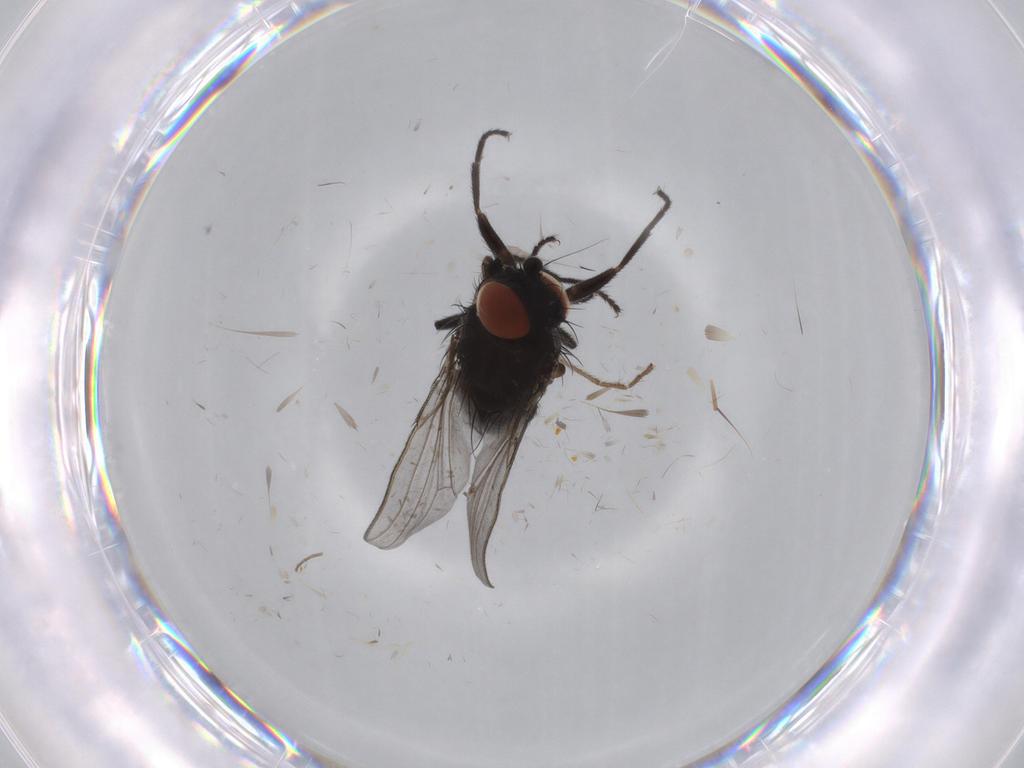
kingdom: Animalia
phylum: Arthropoda
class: Insecta
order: Diptera
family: Milichiidae
